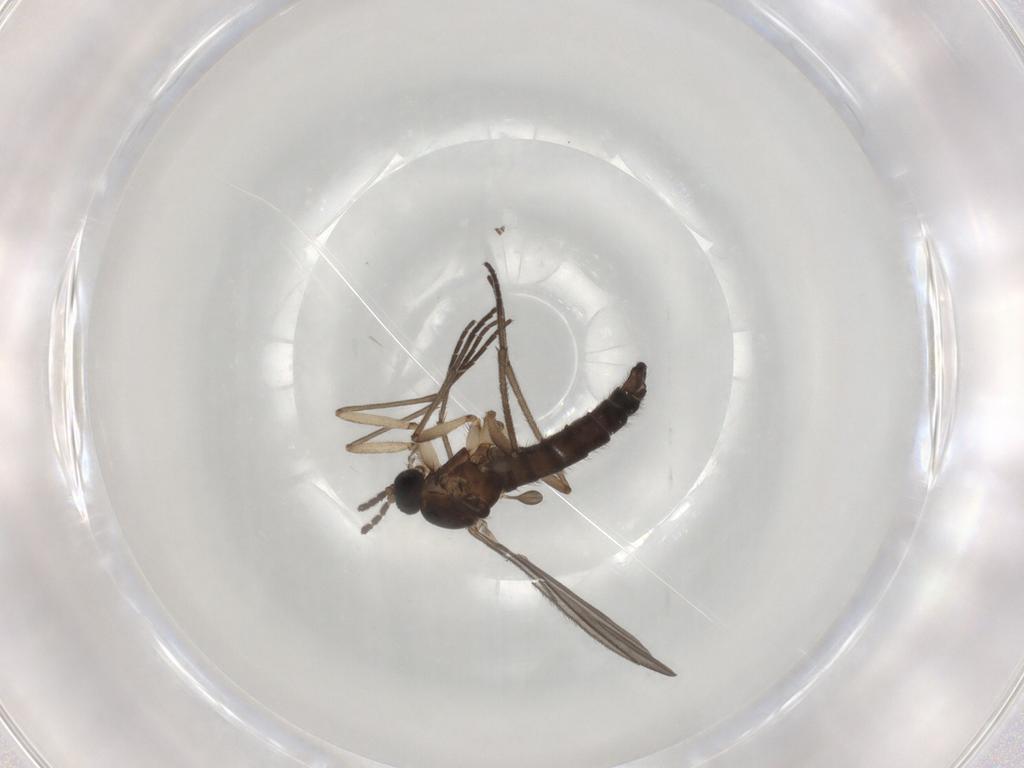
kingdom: Animalia
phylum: Arthropoda
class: Insecta
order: Diptera
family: Sciaridae
